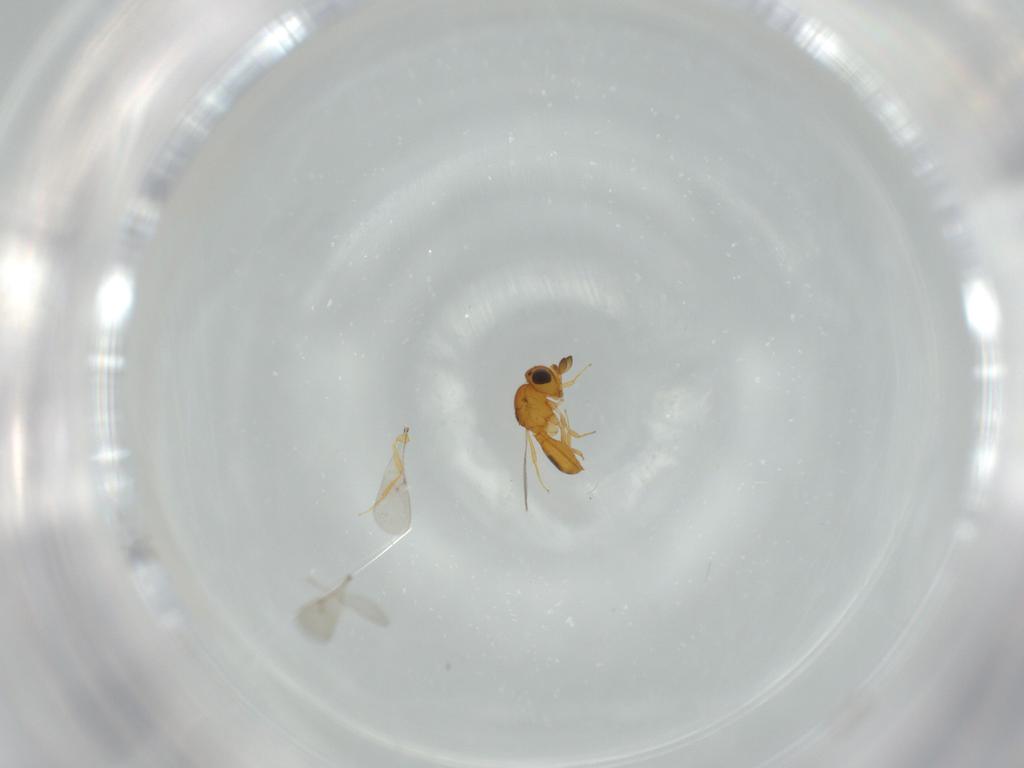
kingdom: Animalia
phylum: Arthropoda
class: Insecta
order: Hymenoptera
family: Scelionidae
